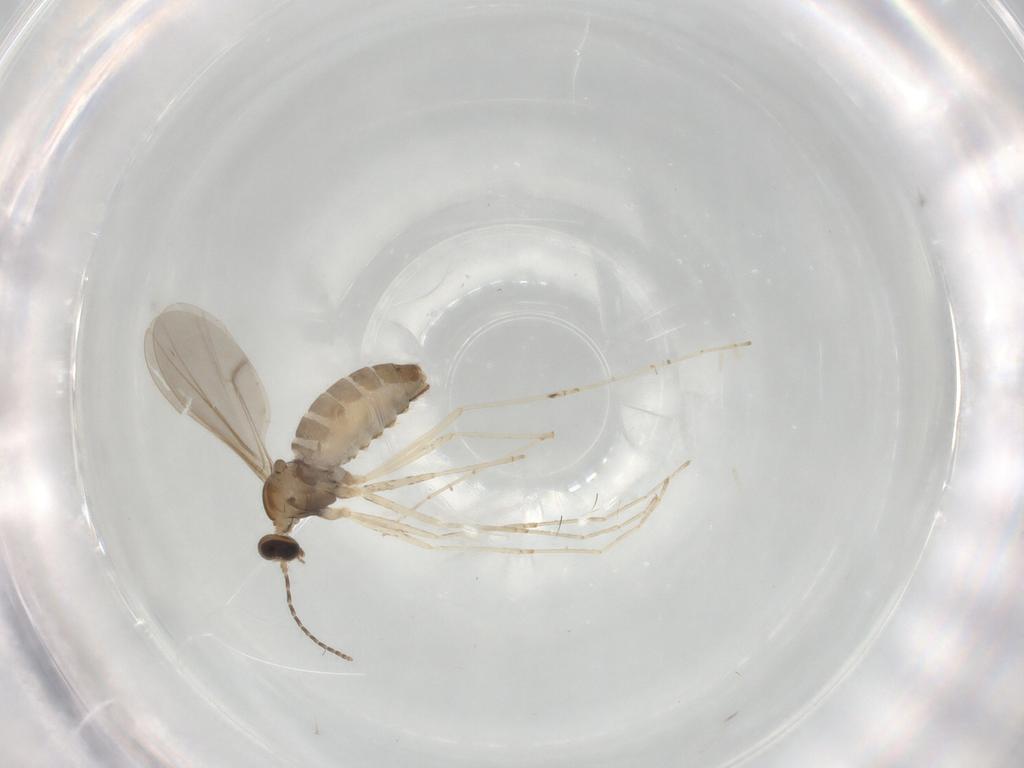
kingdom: Animalia
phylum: Arthropoda
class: Insecta
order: Diptera
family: Cecidomyiidae
